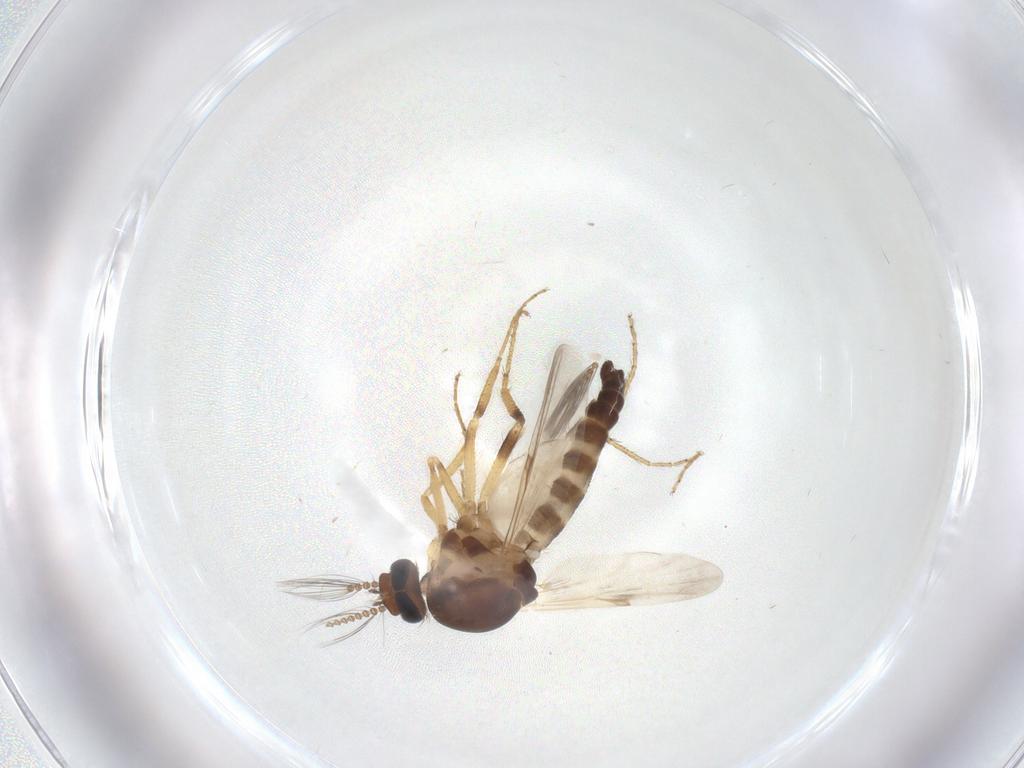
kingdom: Animalia
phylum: Arthropoda
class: Insecta
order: Diptera
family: Ceratopogonidae
